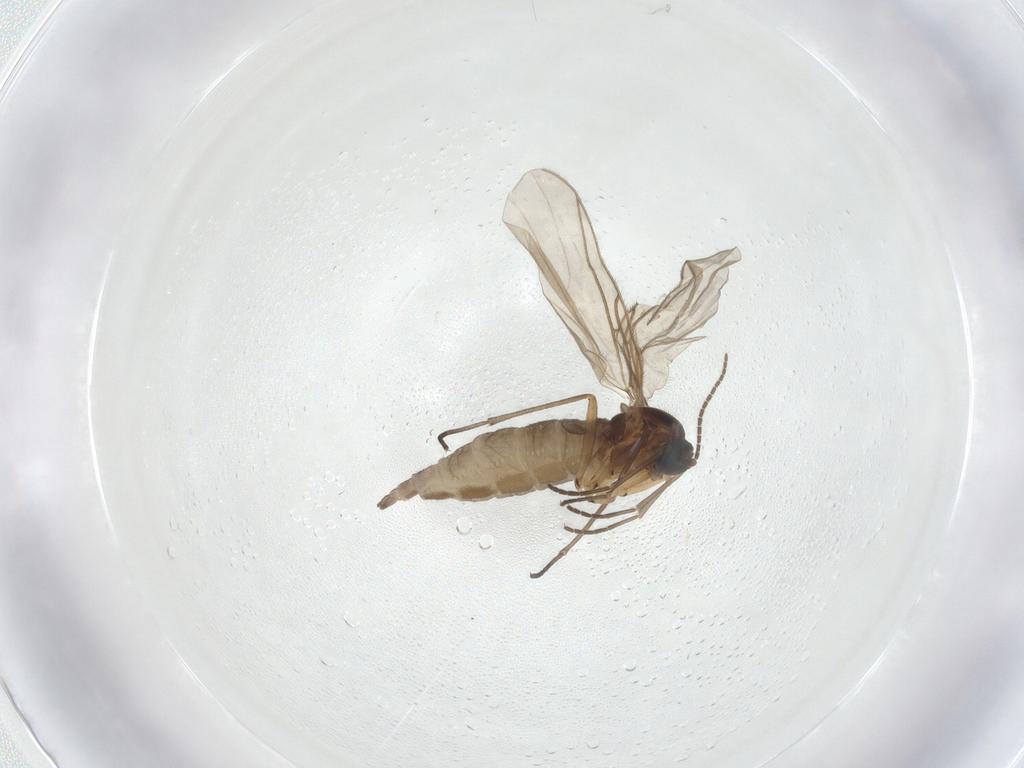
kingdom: Animalia
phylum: Arthropoda
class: Insecta
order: Diptera
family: Sciaridae
